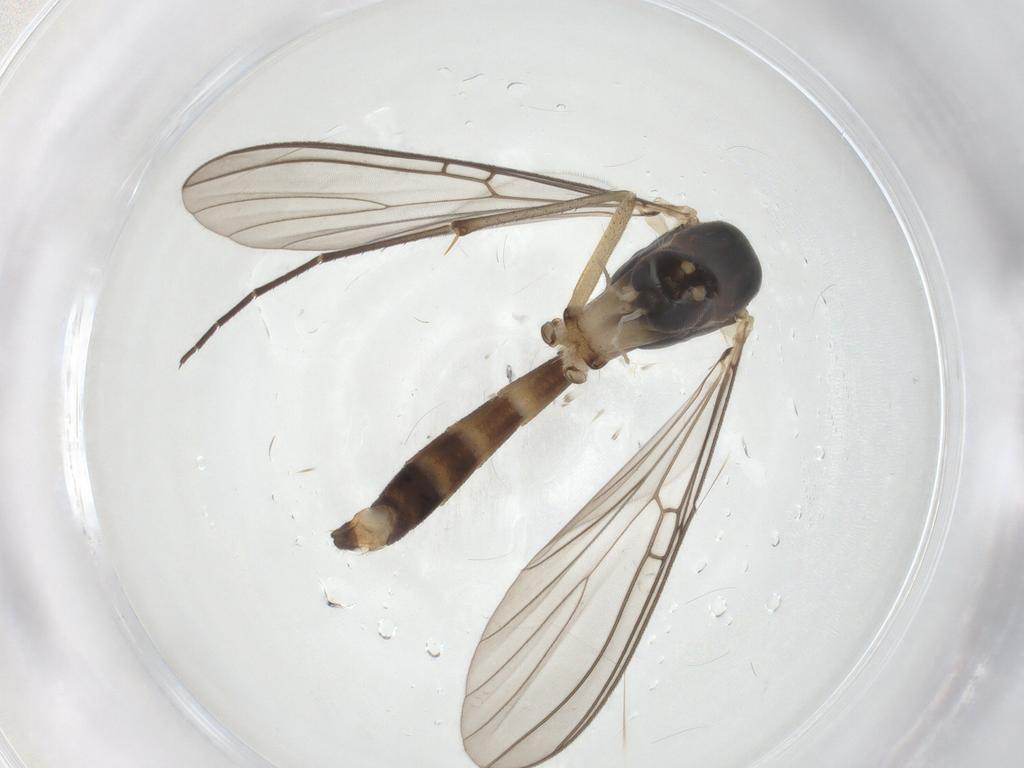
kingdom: Animalia
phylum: Arthropoda
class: Insecta
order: Diptera
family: Mycetophilidae
